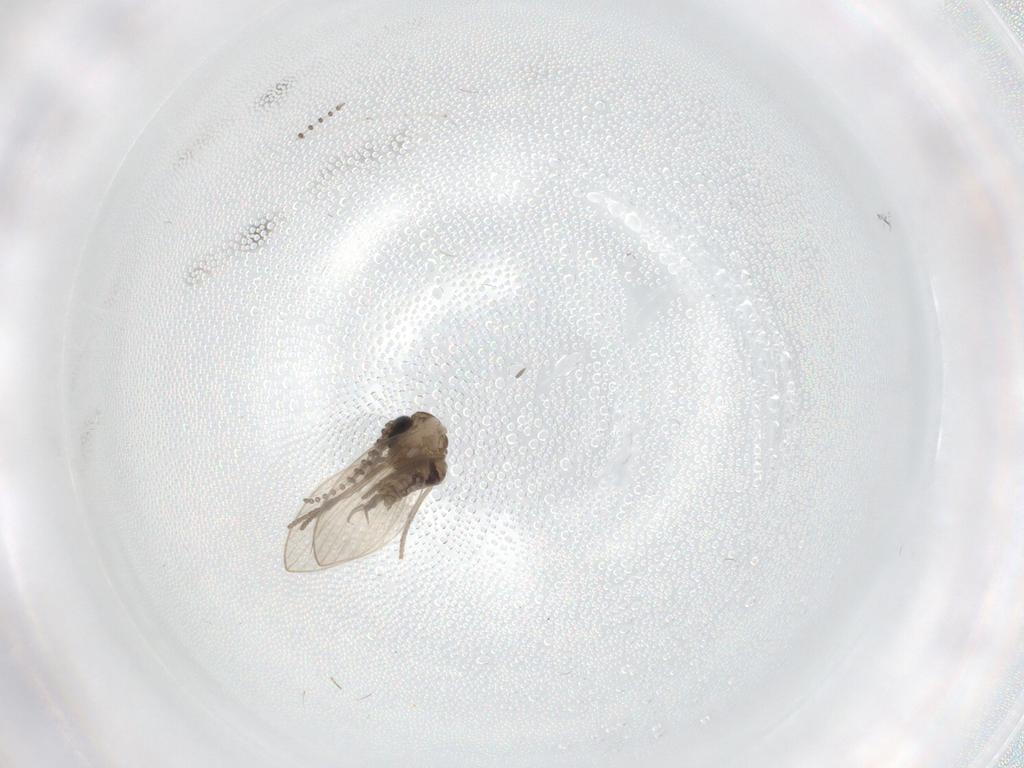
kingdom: Animalia
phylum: Arthropoda
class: Insecta
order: Diptera
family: Psychodidae
